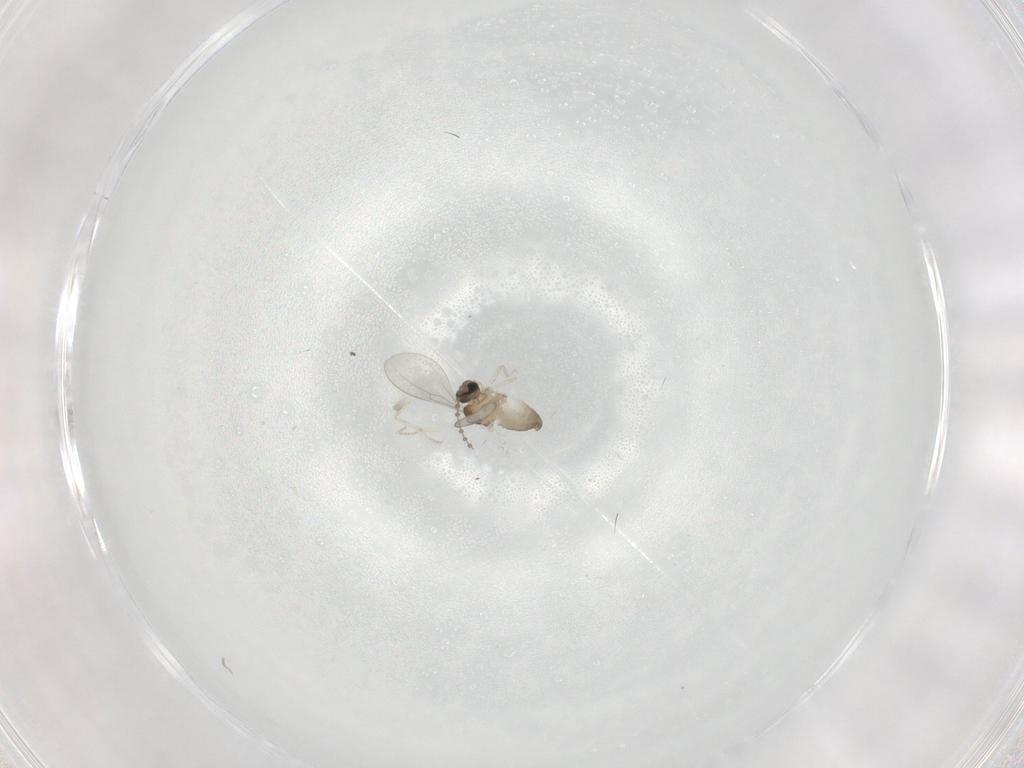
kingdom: Animalia
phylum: Arthropoda
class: Insecta
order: Diptera
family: Cecidomyiidae
